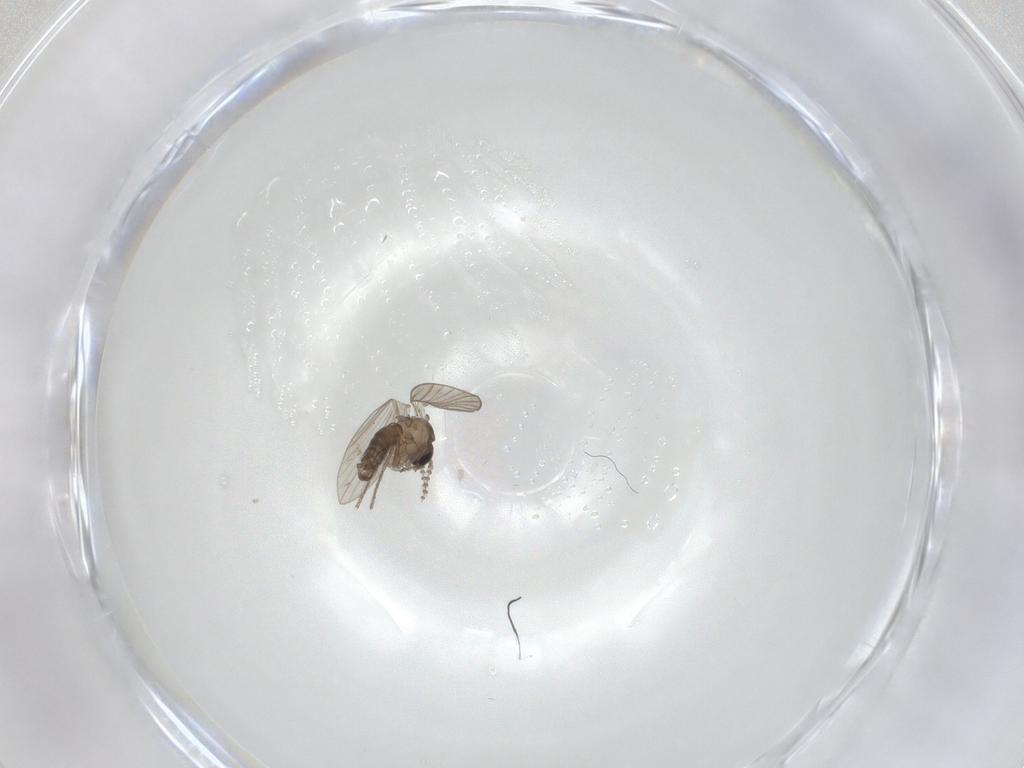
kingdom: Animalia
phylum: Arthropoda
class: Insecta
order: Diptera
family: Psychodidae
